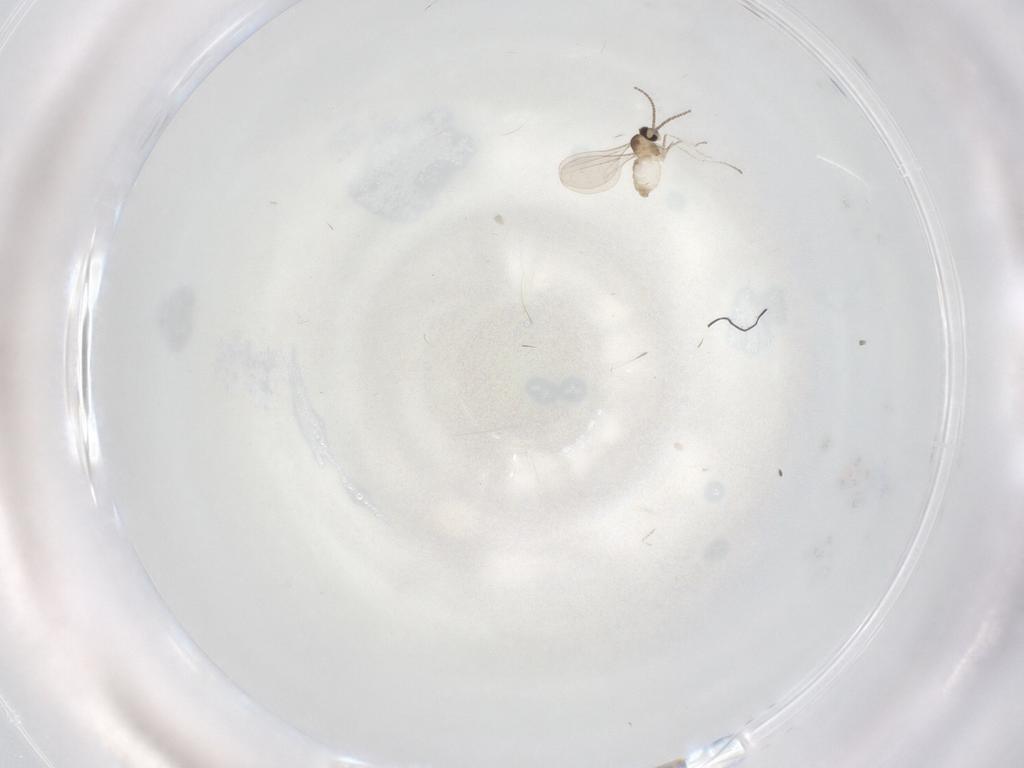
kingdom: Animalia
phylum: Arthropoda
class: Insecta
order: Diptera
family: Cecidomyiidae
